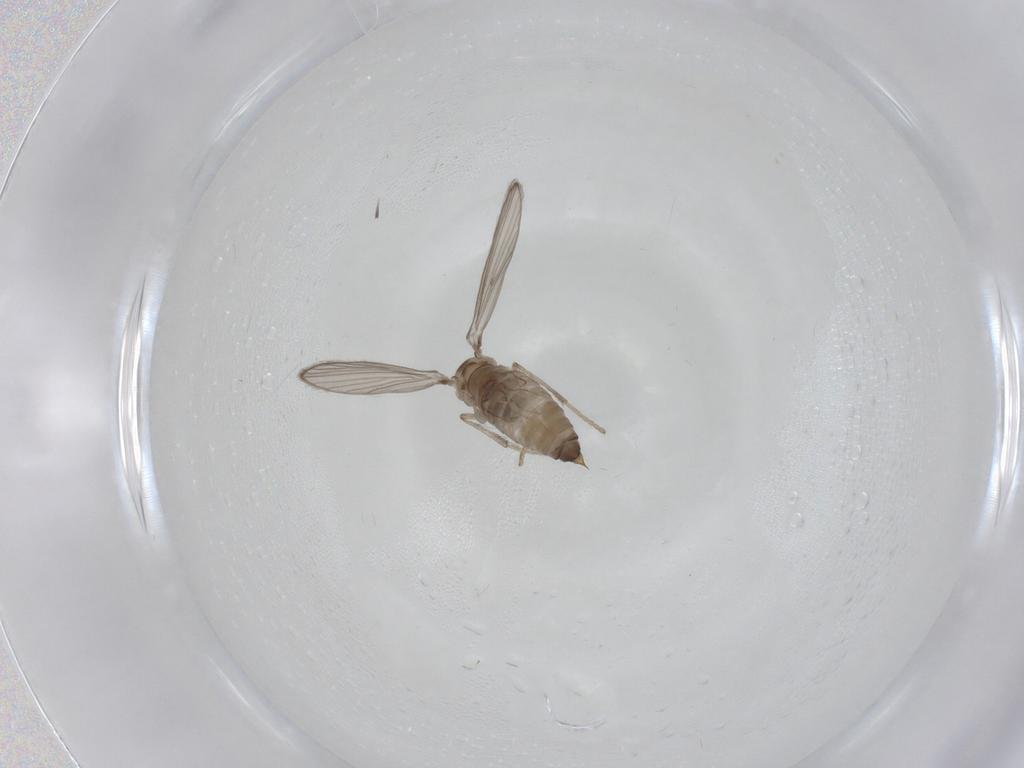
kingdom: Animalia
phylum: Arthropoda
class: Insecta
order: Diptera
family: Psychodidae
